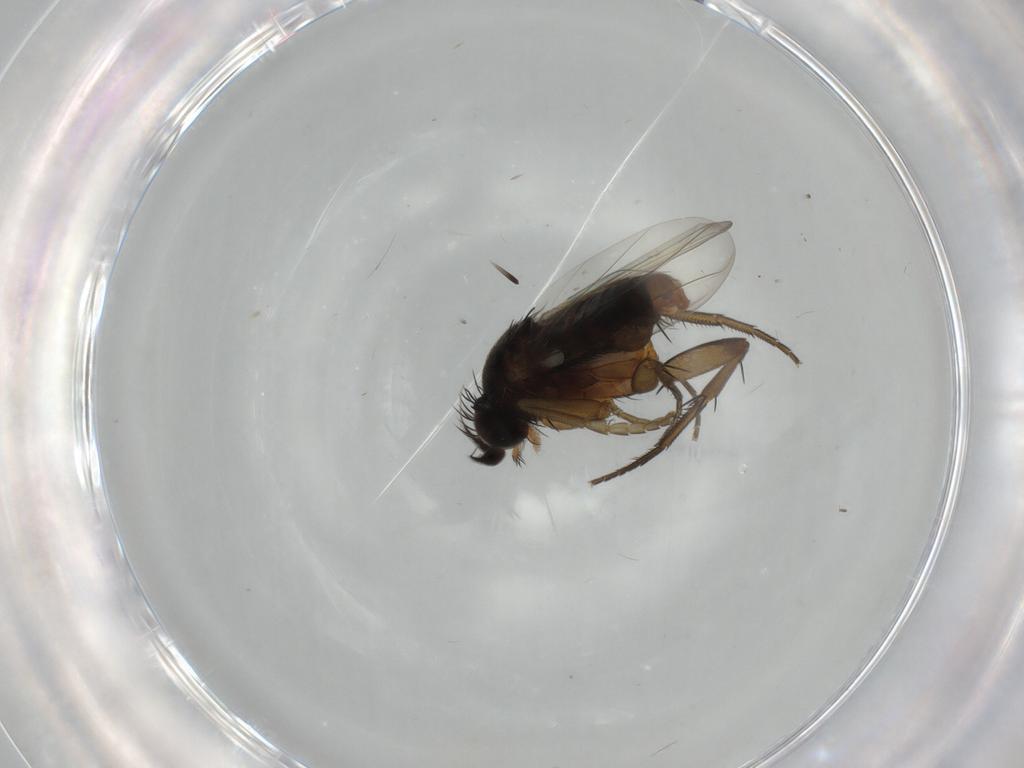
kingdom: Animalia
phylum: Arthropoda
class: Insecta
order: Diptera
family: Phoridae
